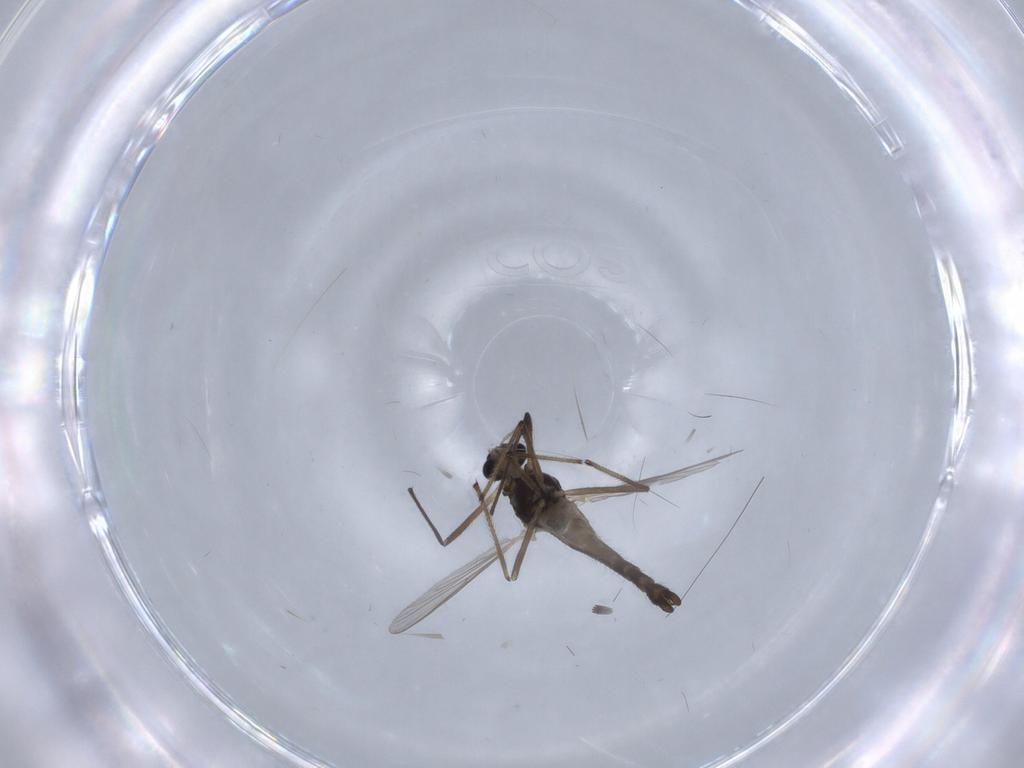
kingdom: Animalia
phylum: Arthropoda
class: Insecta
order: Diptera
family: Chironomidae
